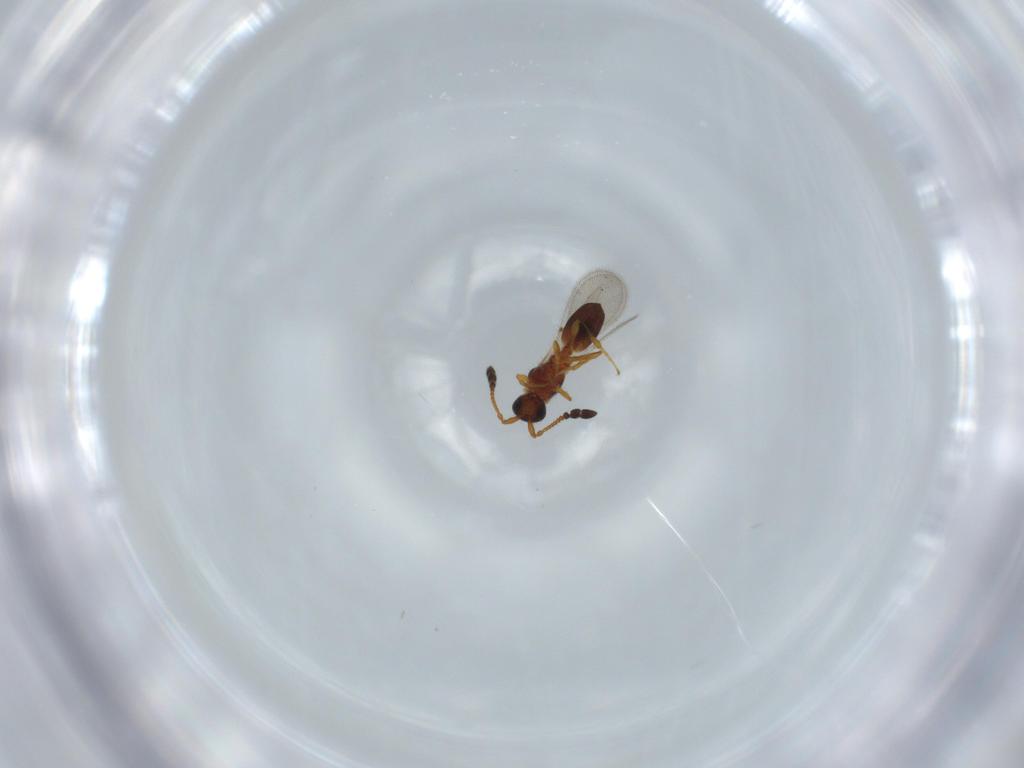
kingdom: Animalia
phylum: Arthropoda
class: Insecta
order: Hymenoptera
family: Diapriidae
